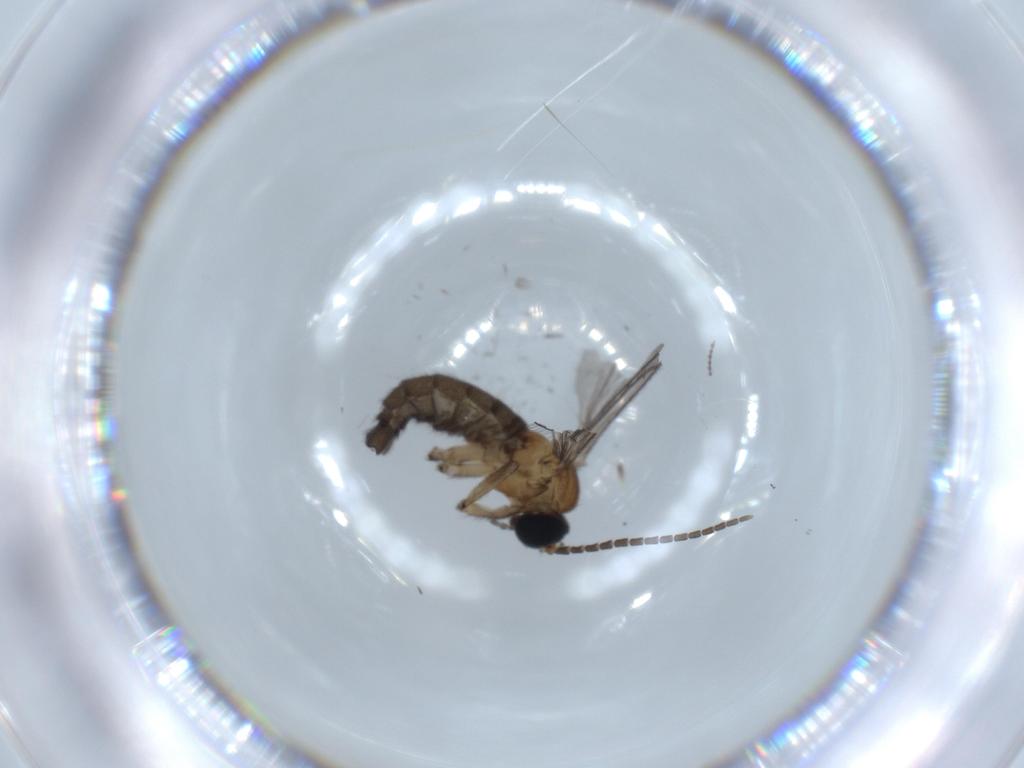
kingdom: Animalia
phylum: Arthropoda
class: Insecta
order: Diptera
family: Sciaridae
